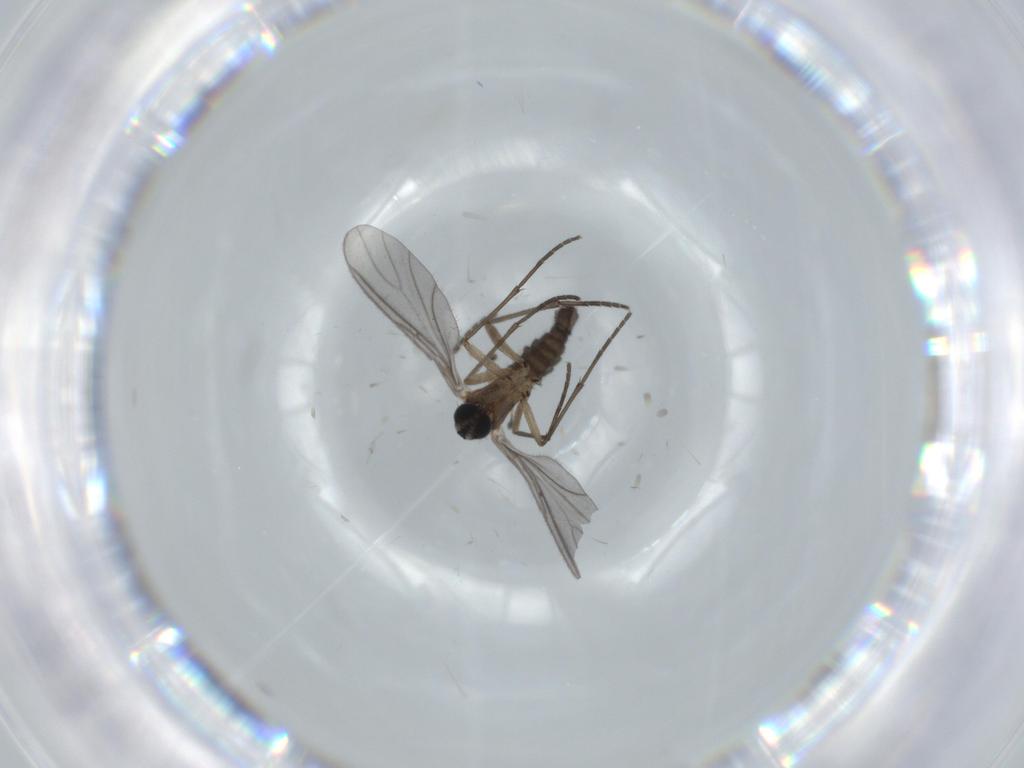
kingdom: Animalia
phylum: Arthropoda
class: Insecta
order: Diptera
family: Sciaridae
